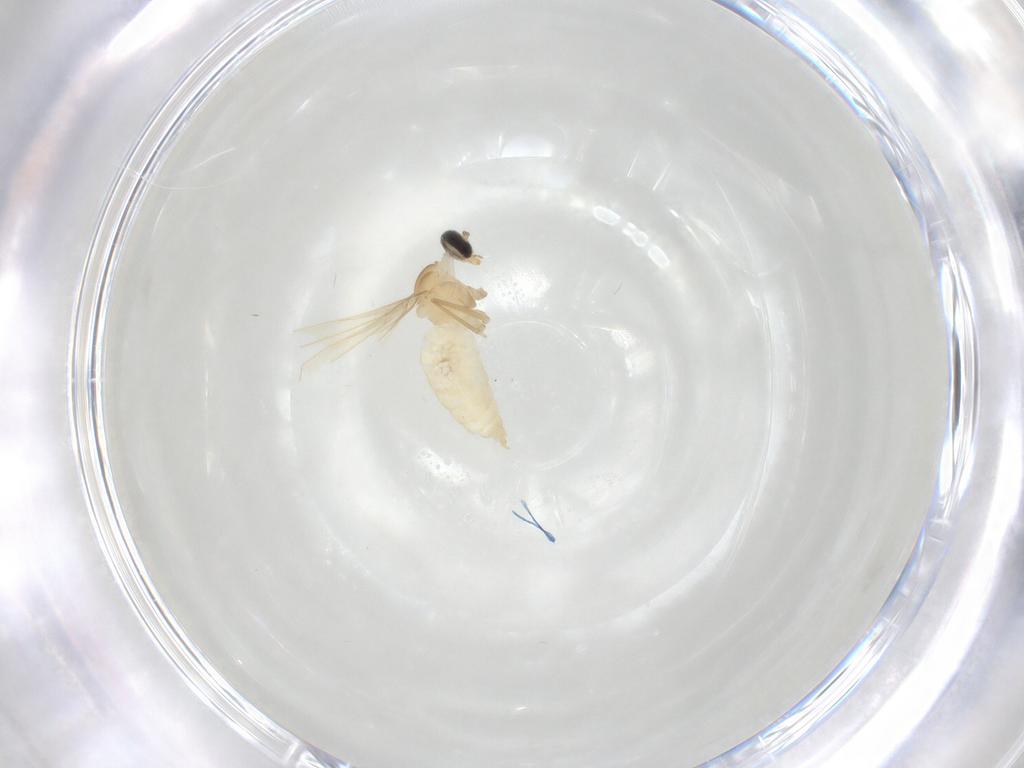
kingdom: Animalia
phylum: Arthropoda
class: Insecta
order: Diptera
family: Cecidomyiidae
